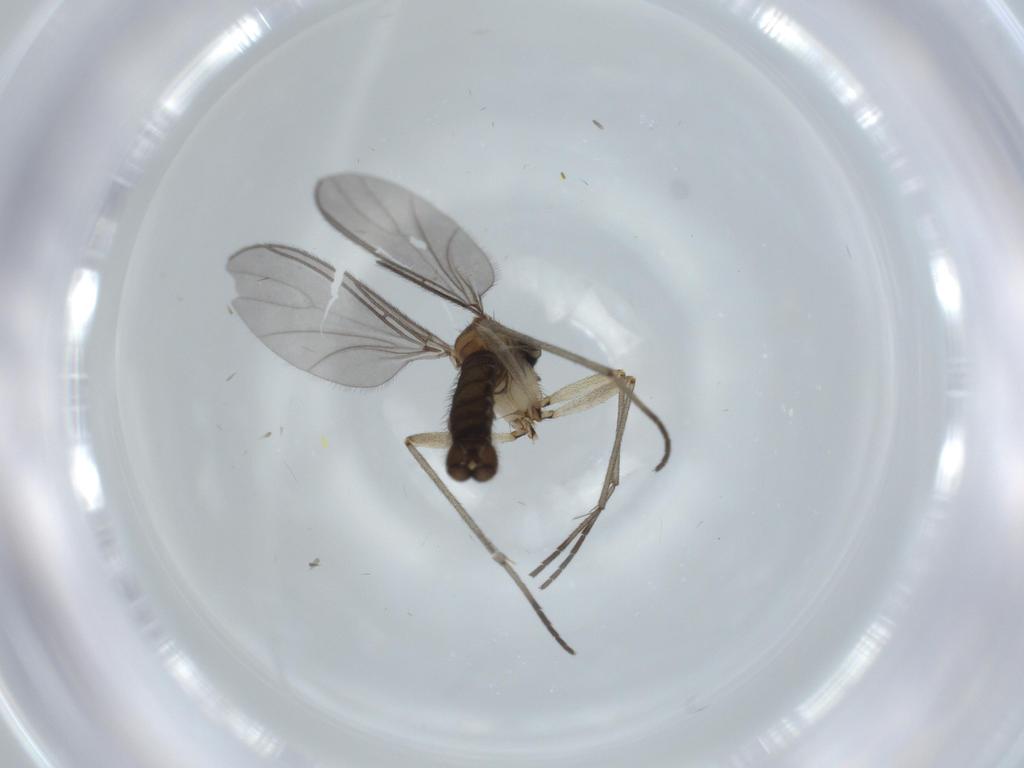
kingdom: Animalia
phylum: Arthropoda
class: Insecta
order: Diptera
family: Sciaridae
